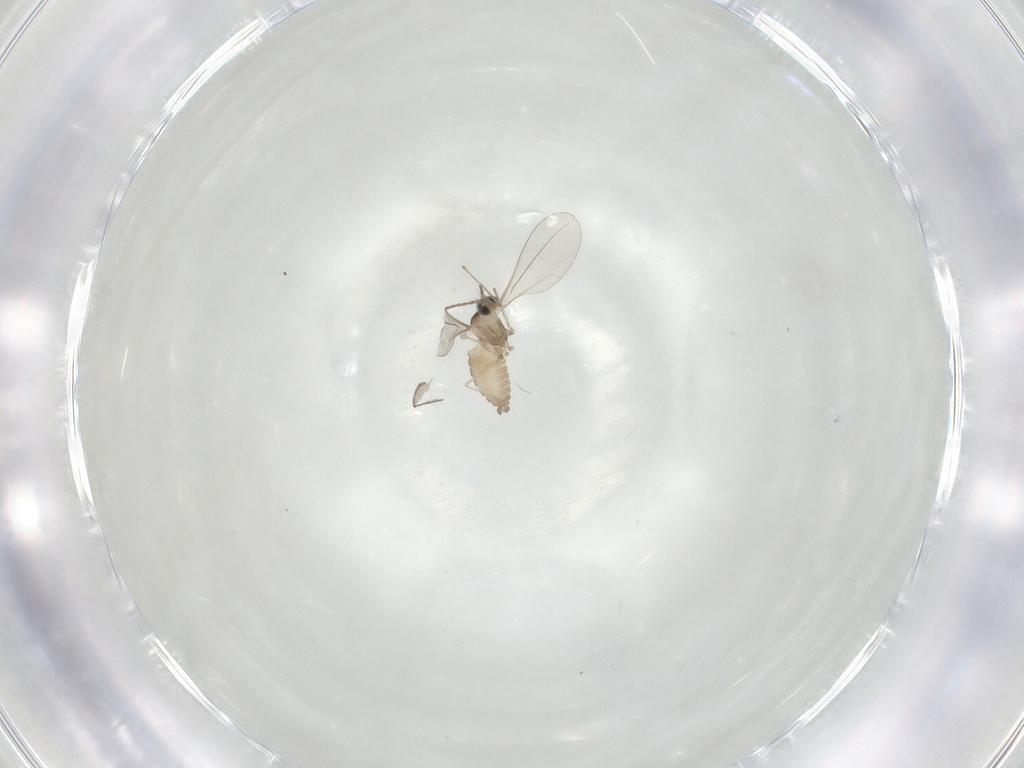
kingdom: Animalia
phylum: Arthropoda
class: Insecta
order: Diptera
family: Cecidomyiidae
